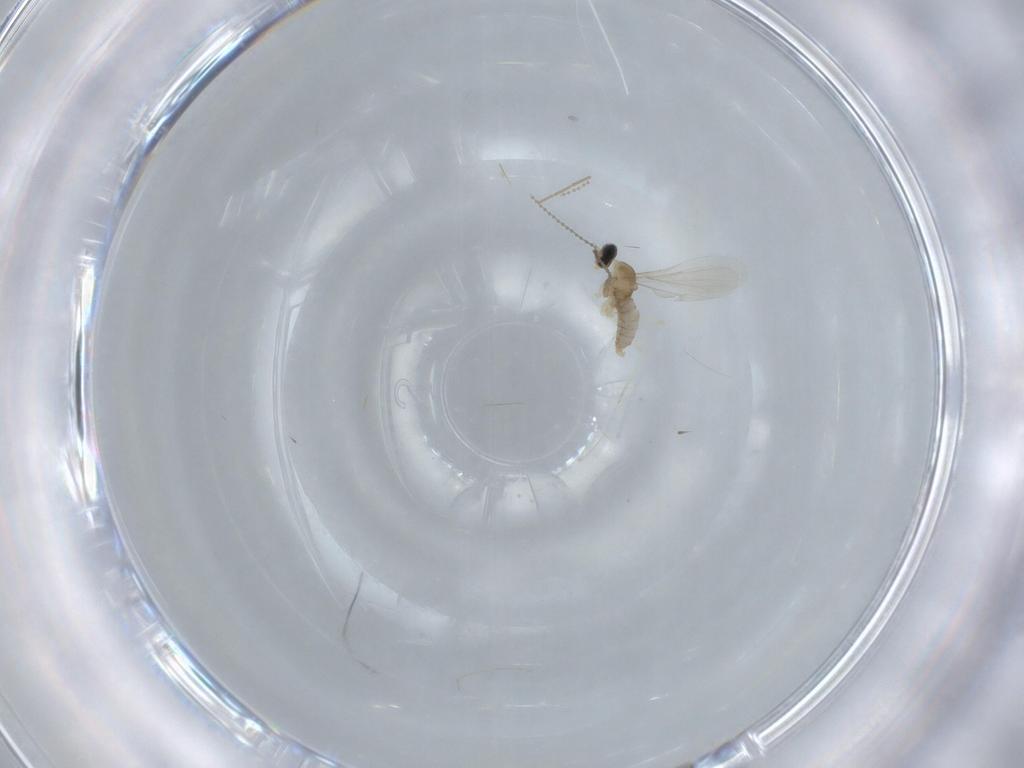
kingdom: Animalia
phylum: Arthropoda
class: Insecta
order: Diptera
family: Cecidomyiidae
